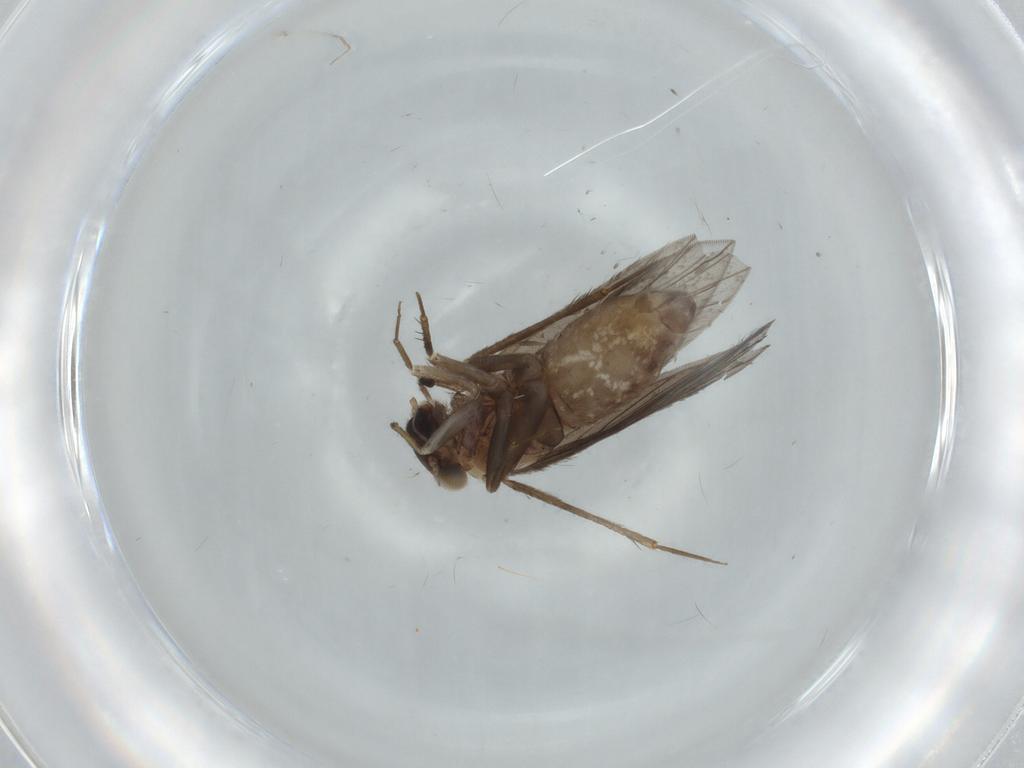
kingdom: Animalia
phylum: Arthropoda
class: Insecta
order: Psocodea
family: Lepidopsocidae
